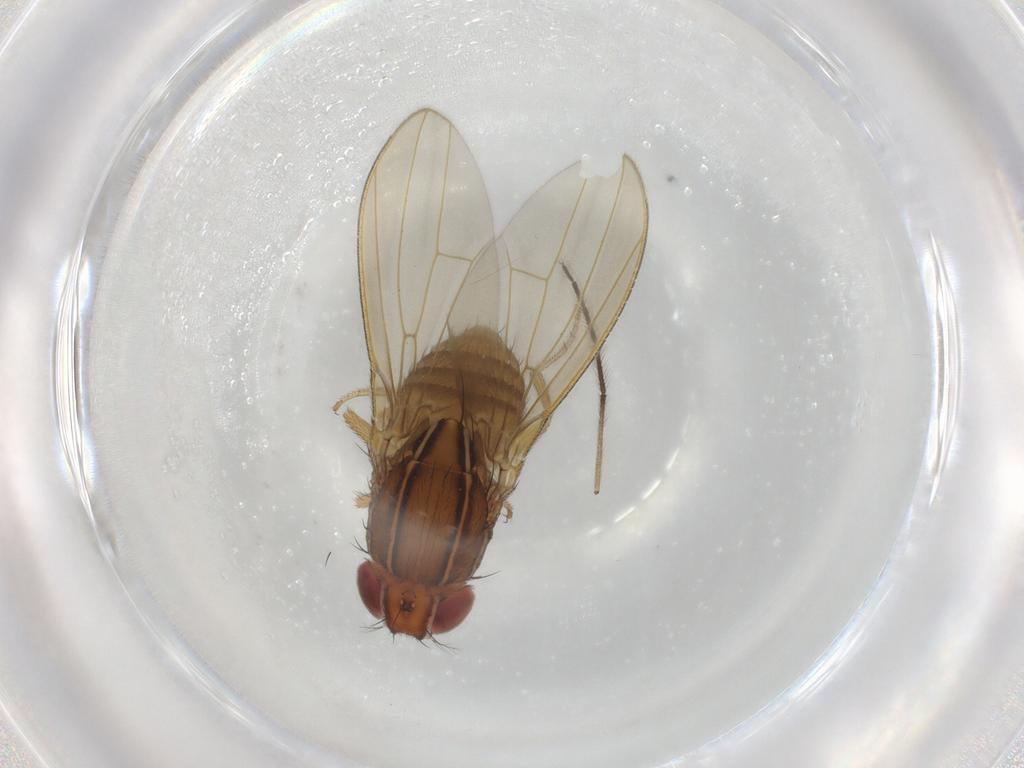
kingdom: Animalia
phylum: Arthropoda
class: Insecta
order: Diptera
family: Drosophilidae
